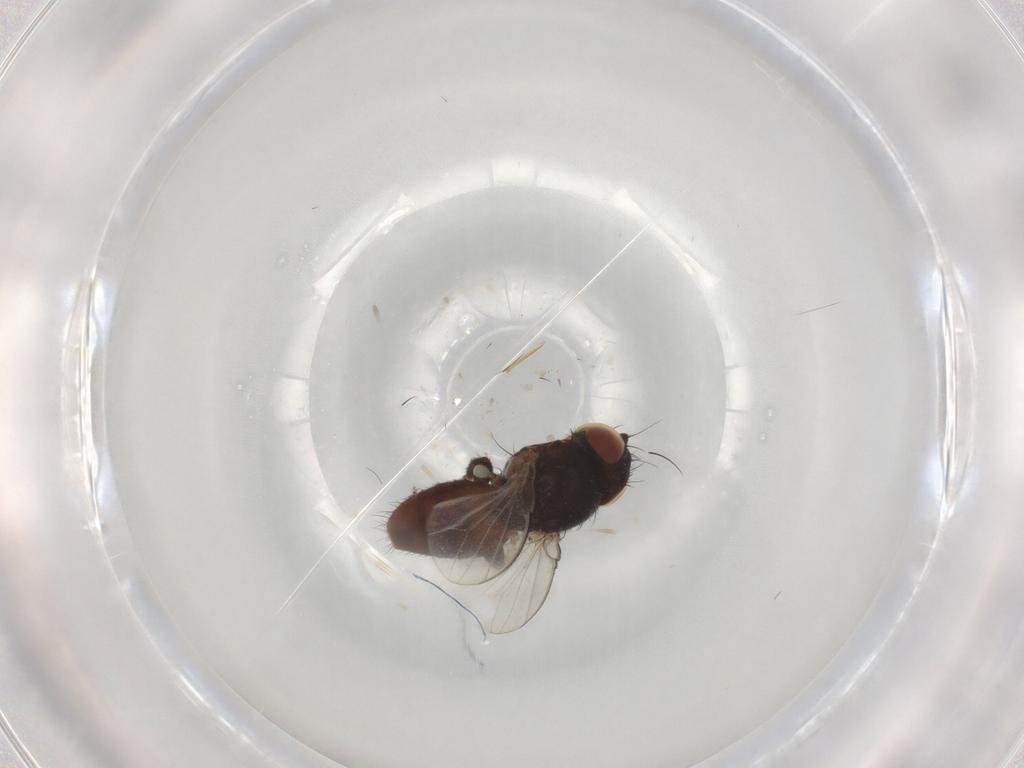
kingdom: Animalia
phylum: Arthropoda
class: Insecta
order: Diptera
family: Milichiidae
